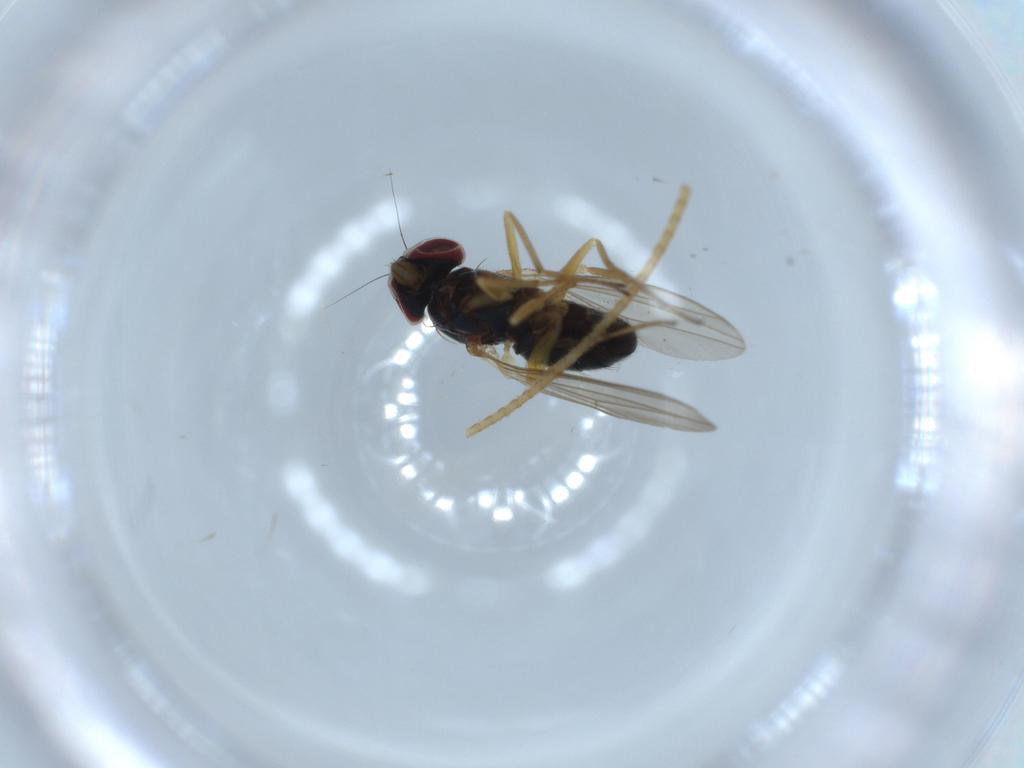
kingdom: Animalia
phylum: Arthropoda
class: Insecta
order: Diptera
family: Dolichopodidae
